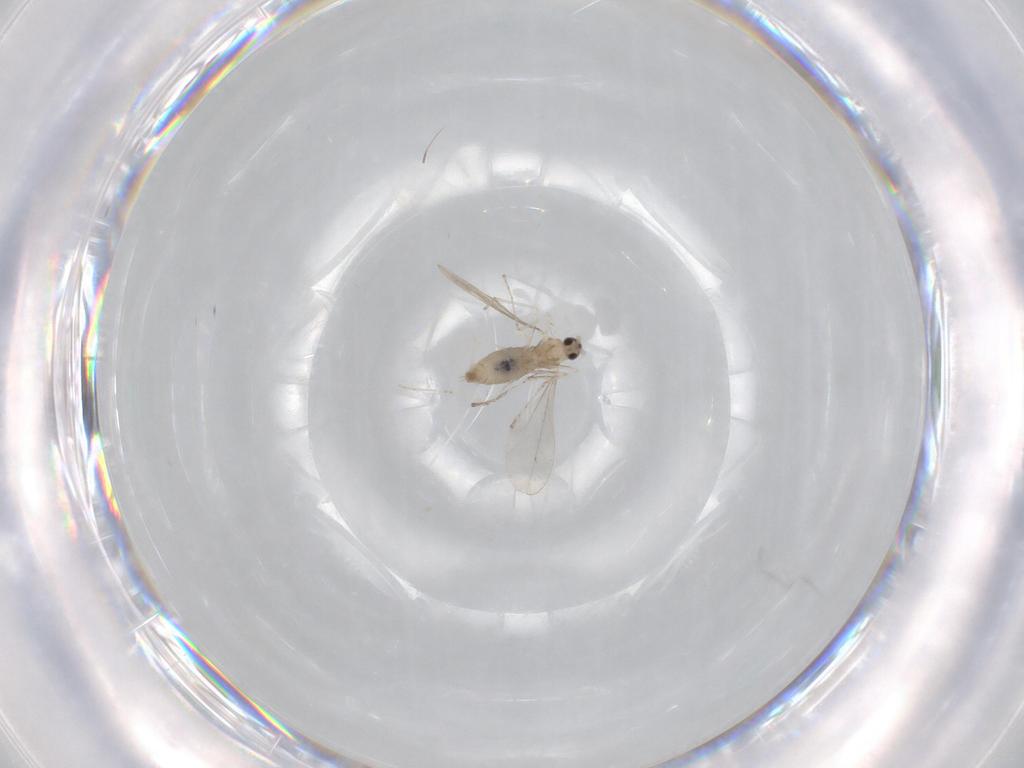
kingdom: Animalia
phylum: Arthropoda
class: Insecta
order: Diptera
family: Cecidomyiidae
